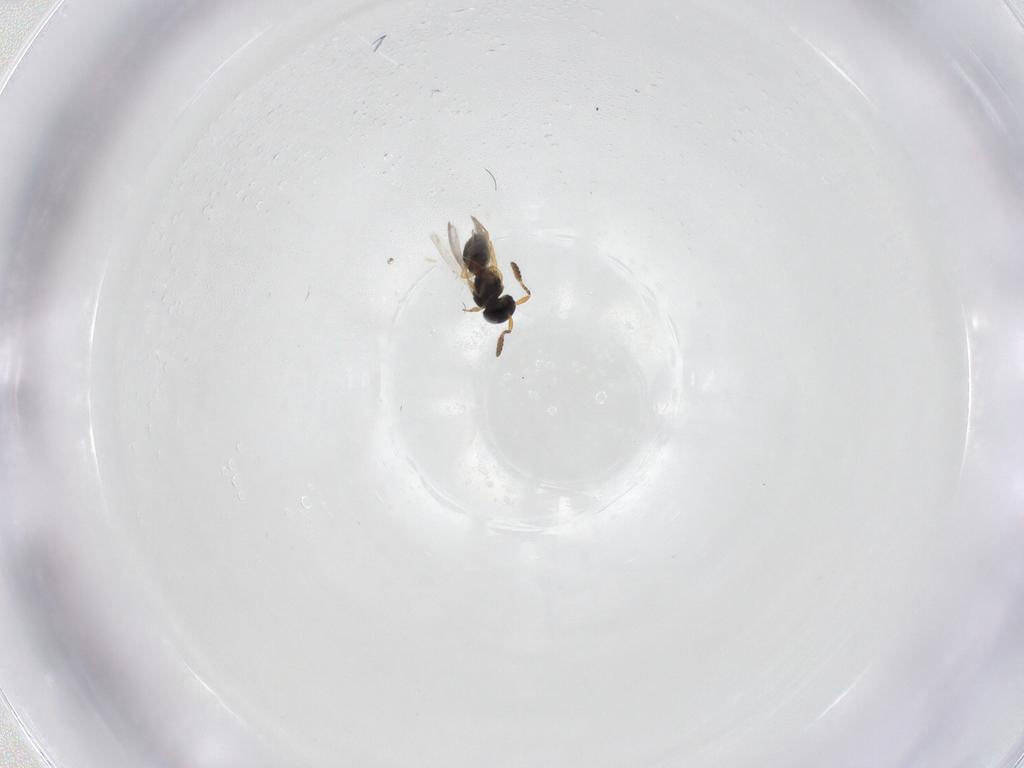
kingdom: Animalia
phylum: Arthropoda
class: Insecta
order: Hymenoptera
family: Scelionidae
